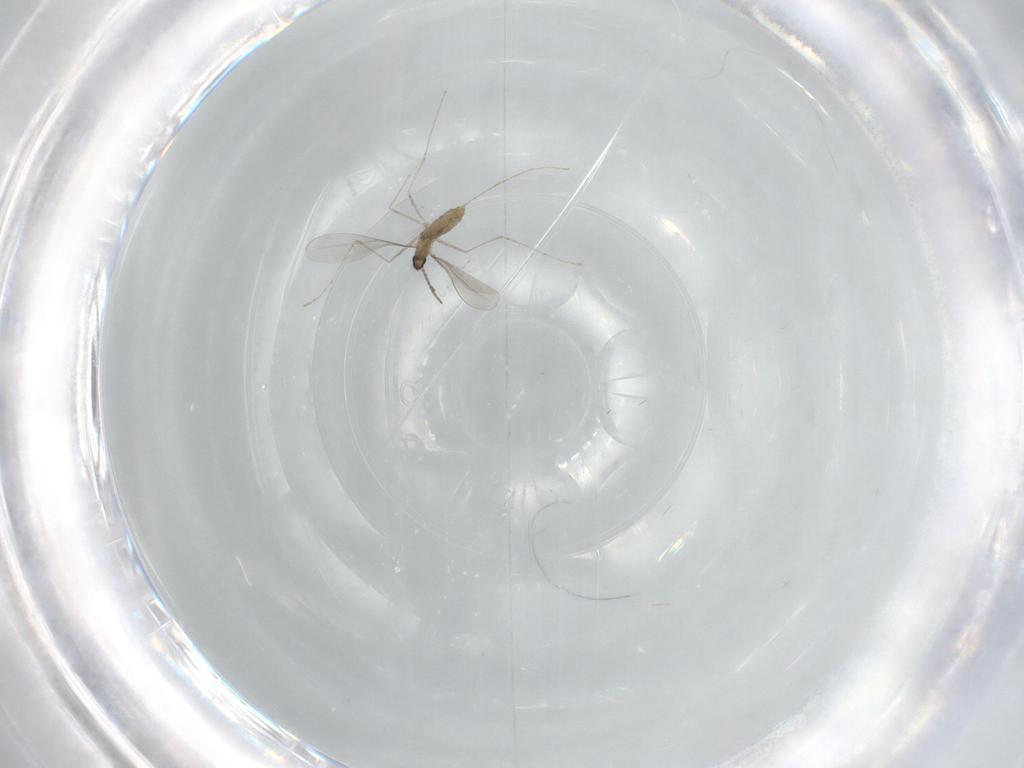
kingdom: Animalia
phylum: Arthropoda
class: Insecta
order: Diptera
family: Cecidomyiidae
